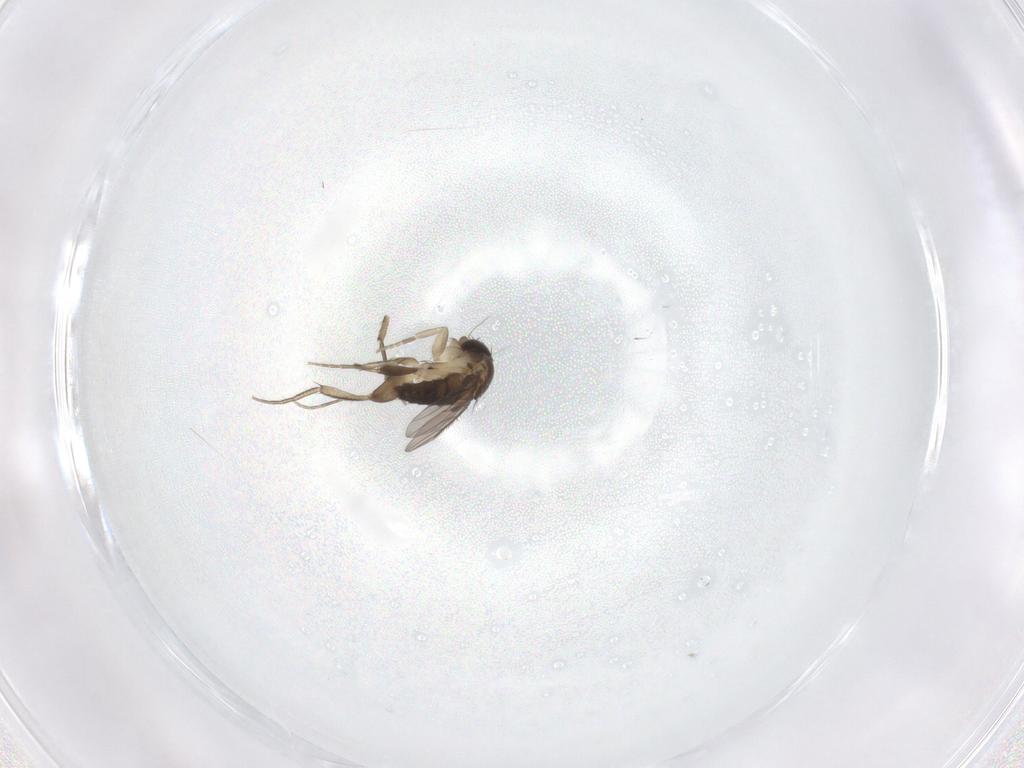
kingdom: Animalia
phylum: Arthropoda
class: Insecta
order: Diptera
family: Phoridae
